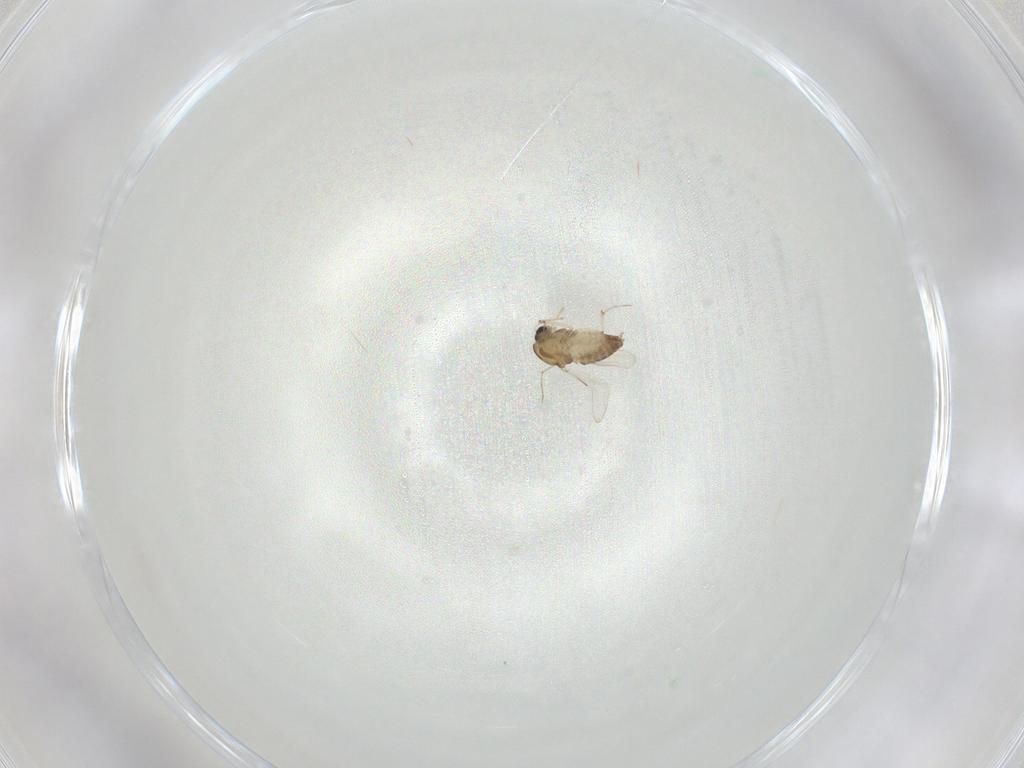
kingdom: Animalia
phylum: Arthropoda
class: Insecta
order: Diptera
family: Chironomidae
